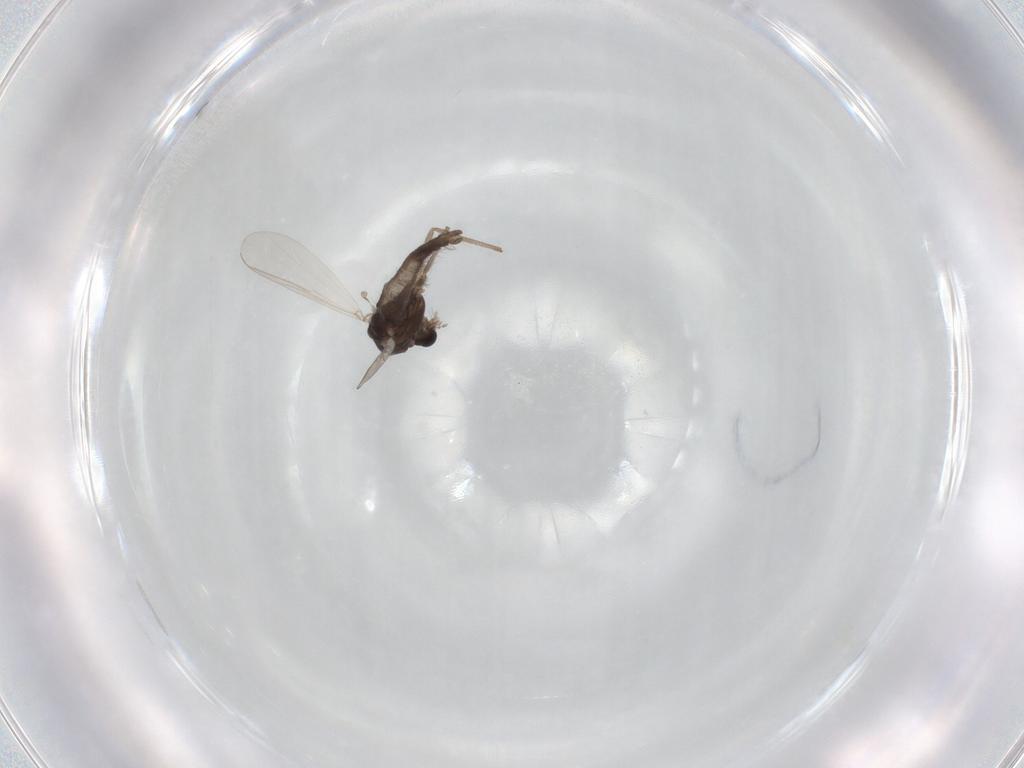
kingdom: Animalia
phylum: Arthropoda
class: Insecta
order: Diptera
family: Chironomidae
